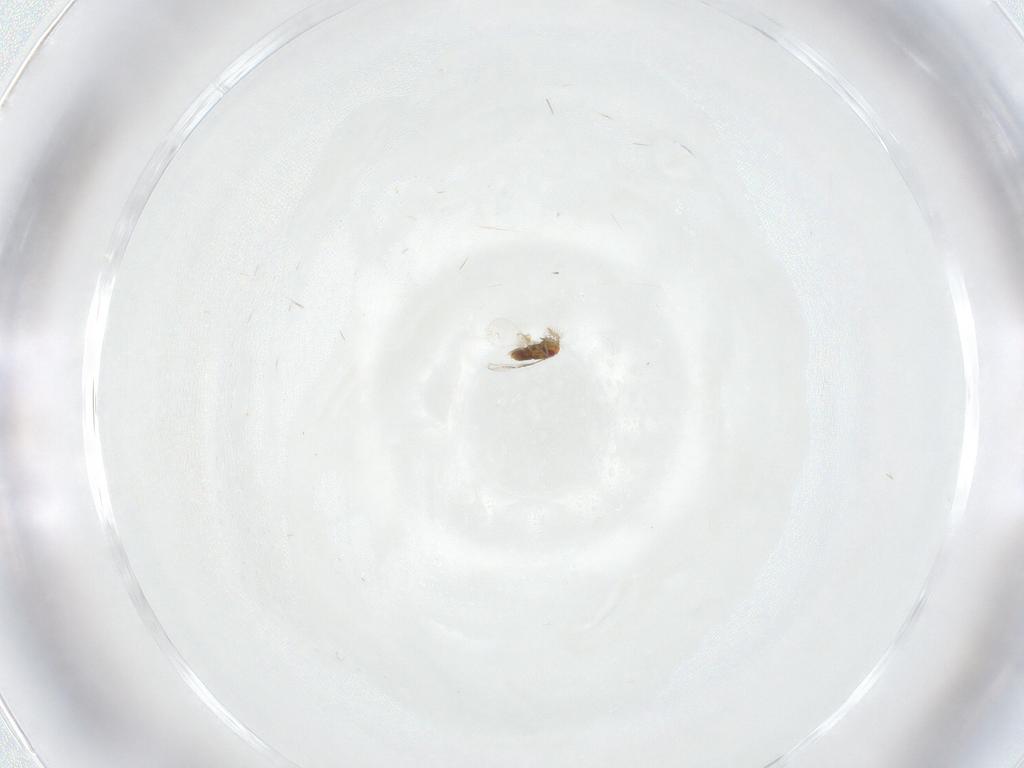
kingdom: Animalia
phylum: Arthropoda
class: Insecta
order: Hymenoptera
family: Trichogrammatidae
